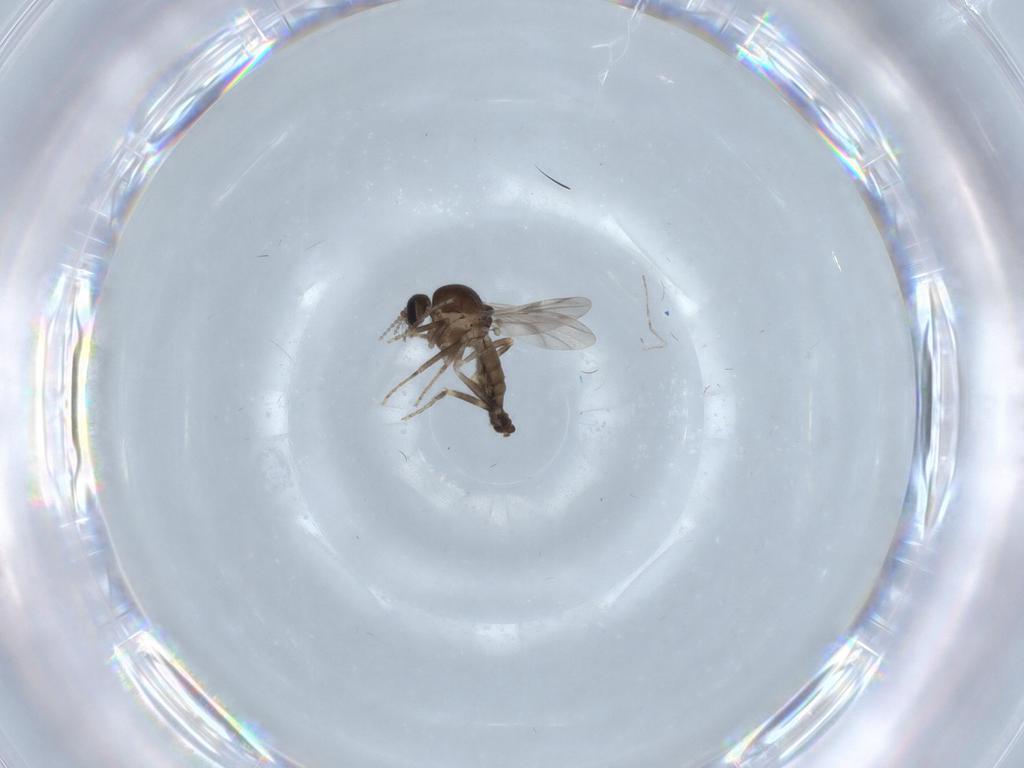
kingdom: Animalia
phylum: Arthropoda
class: Insecta
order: Diptera
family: Ceratopogonidae
